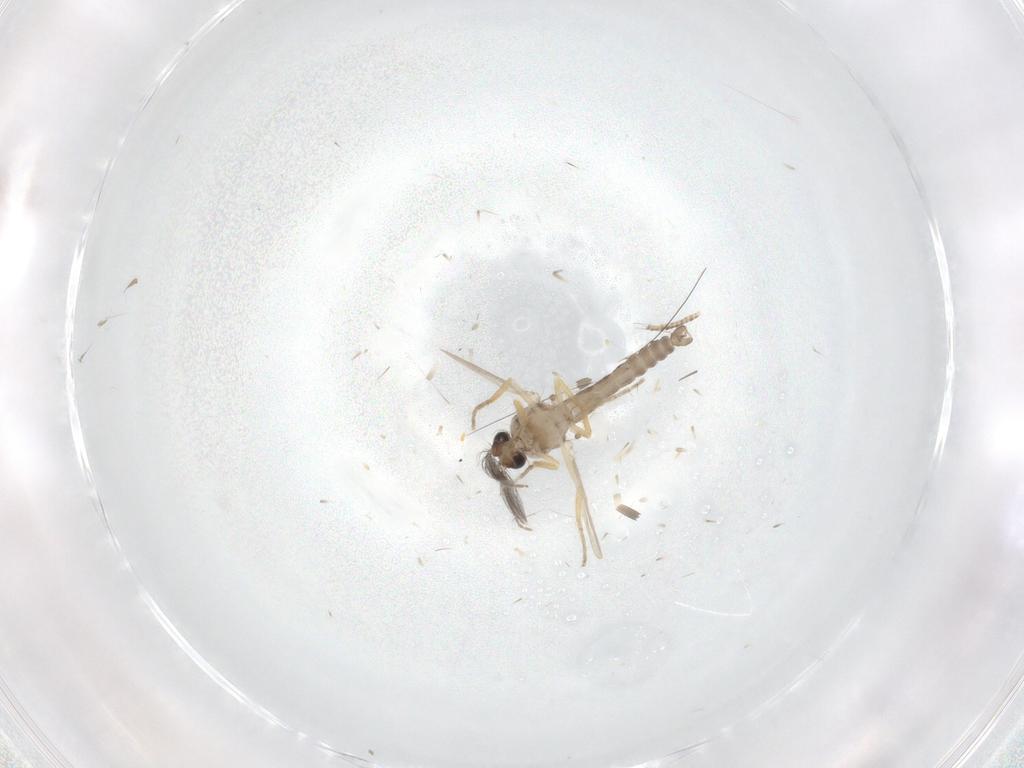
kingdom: Animalia
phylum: Arthropoda
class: Insecta
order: Diptera
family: Ceratopogonidae
